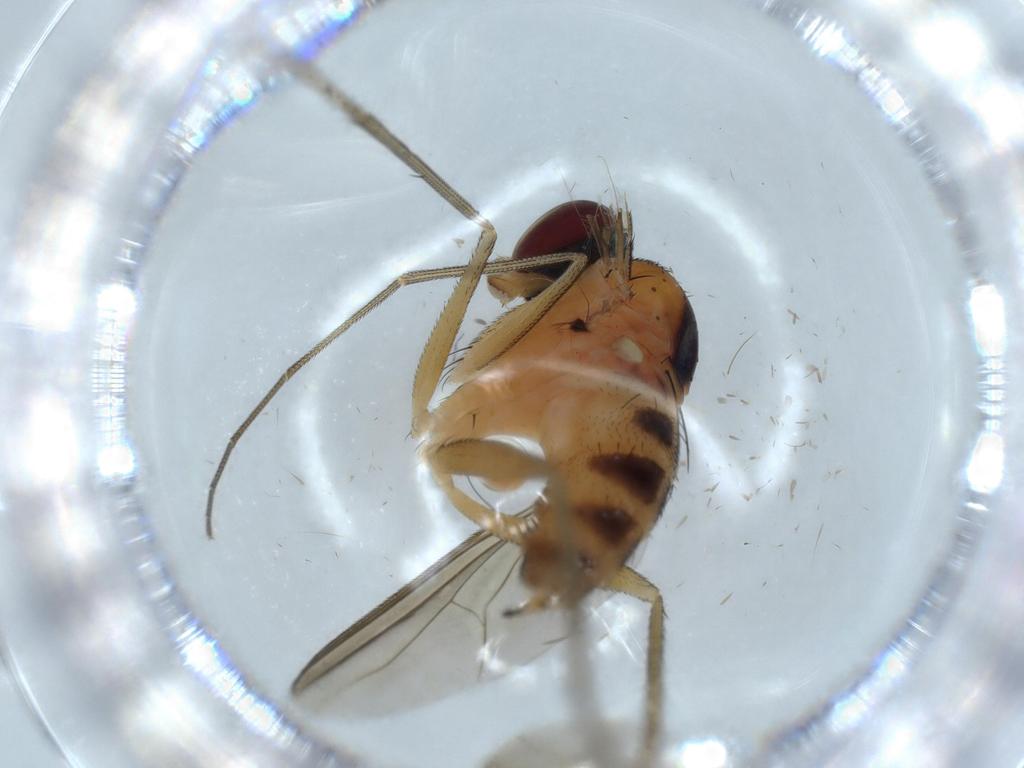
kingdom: Animalia
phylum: Arthropoda
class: Insecta
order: Diptera
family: Dolichopodidae
